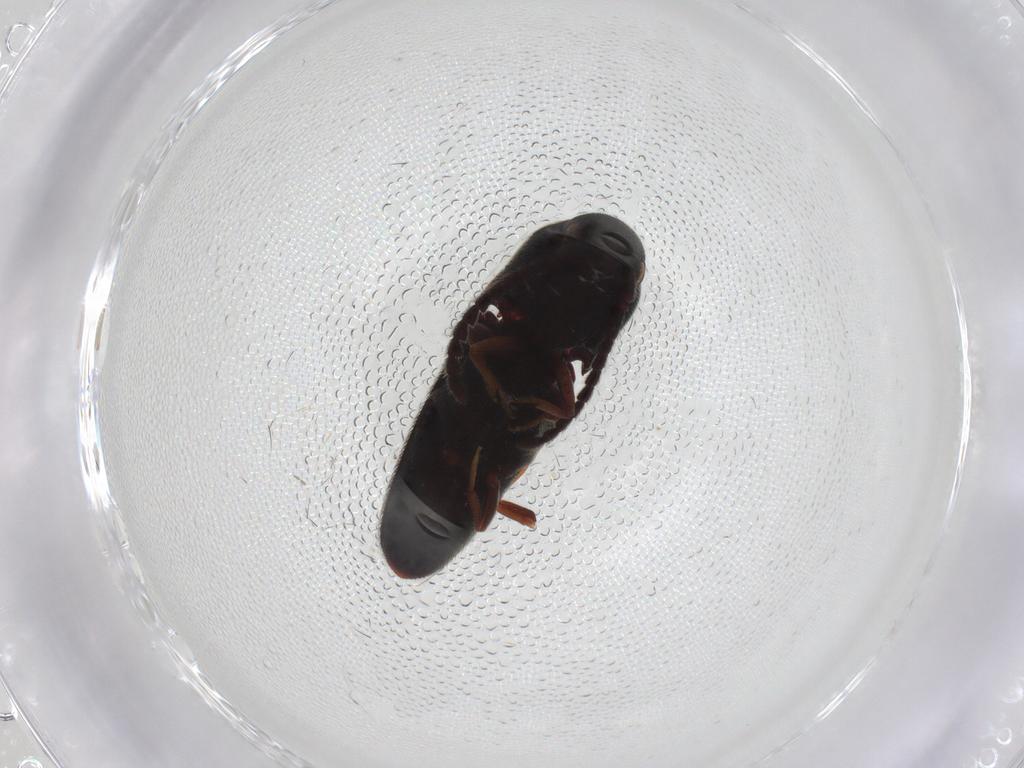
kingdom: Animalia
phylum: Arthropoda
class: Insecta
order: Coleoptera
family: Eucnemidae
